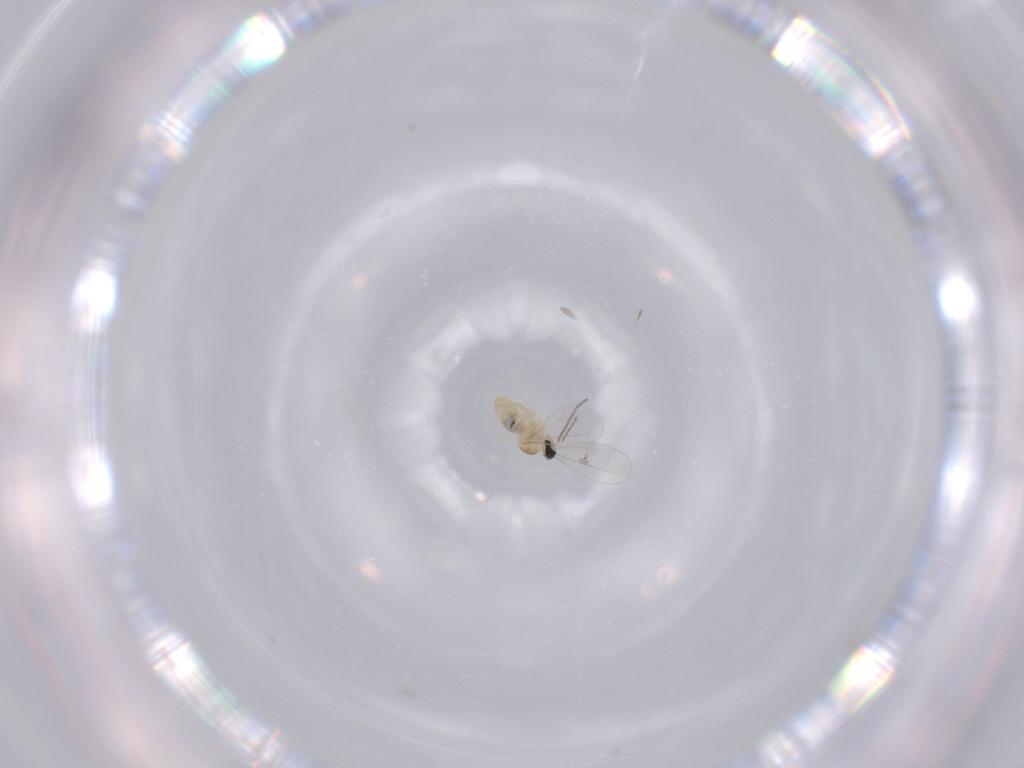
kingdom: Animalia
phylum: Arthropoda
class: Insecta
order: Diptera
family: Cecidomyiidae
